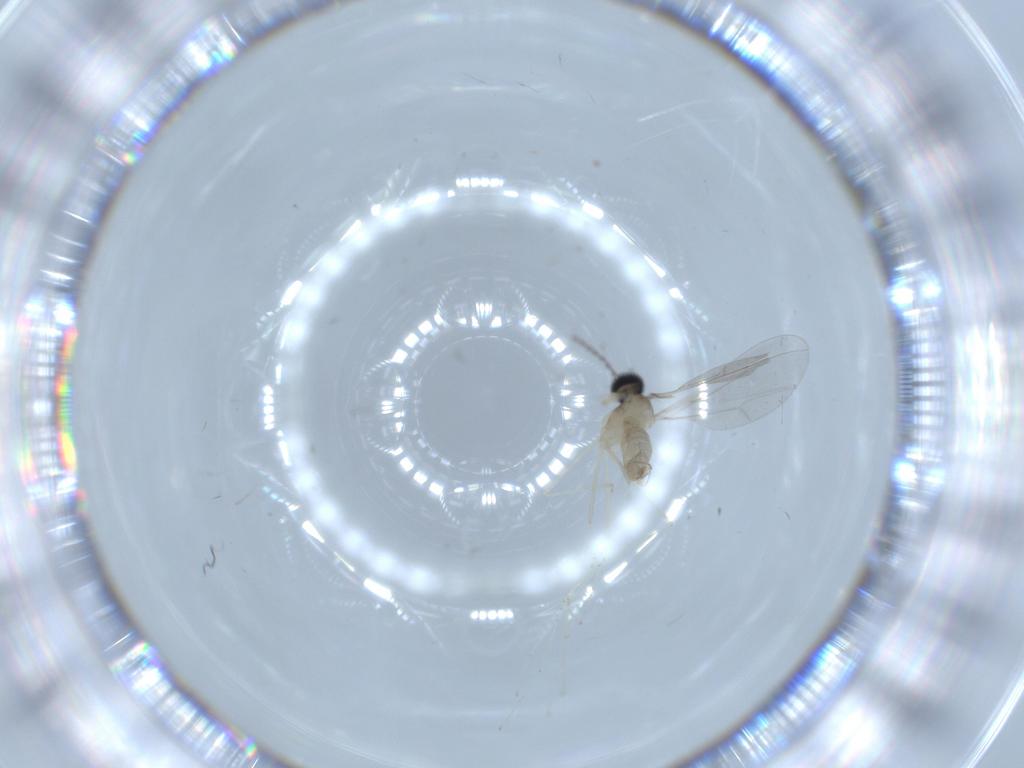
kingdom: Animalia
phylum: Arthropoda
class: Insecta
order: Diptera
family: Cecidomyiidae
